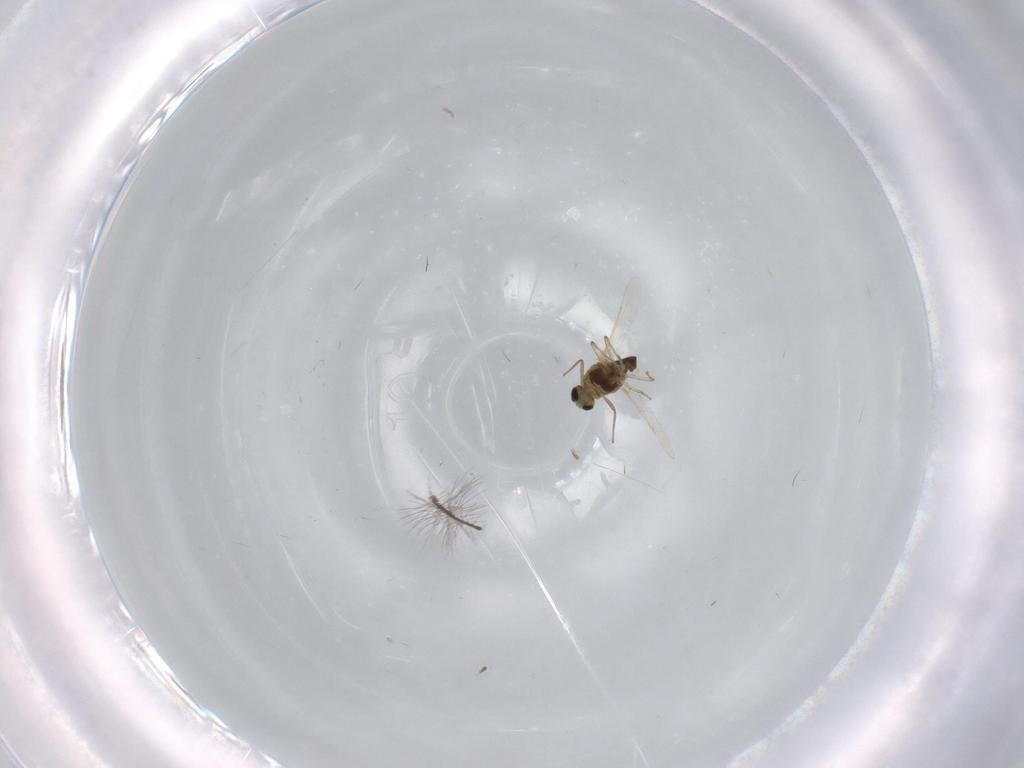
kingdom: Animalia
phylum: Arthropoda
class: Insecta
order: Diptera
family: Chironomidae
